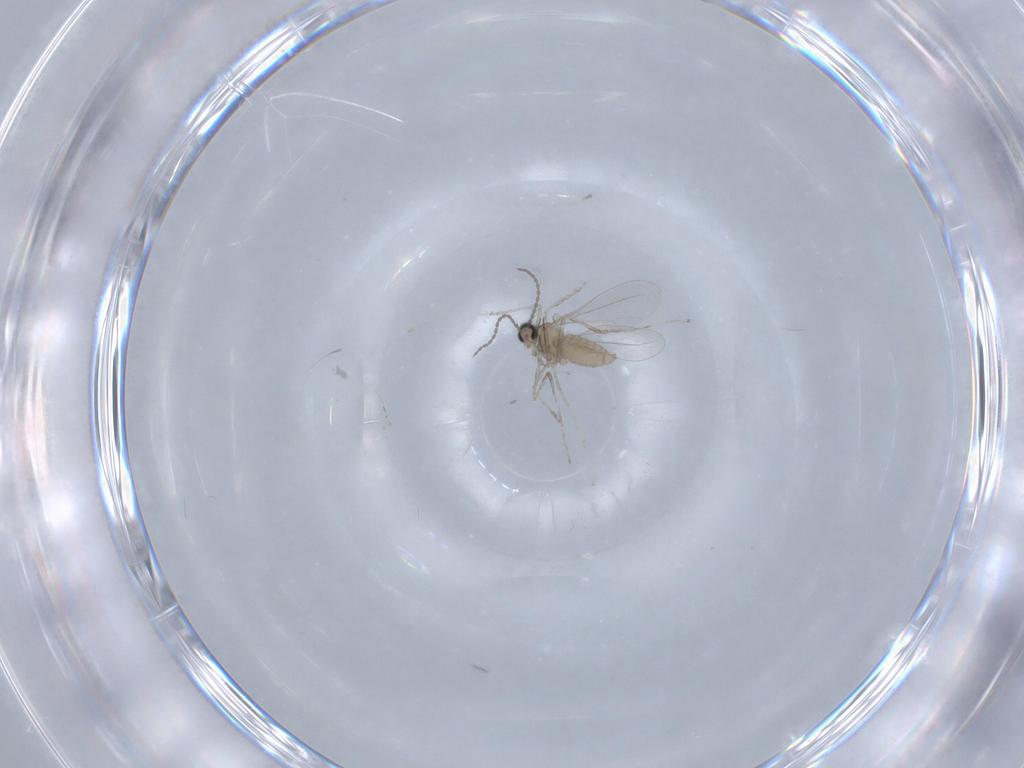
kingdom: Animalia
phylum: Arthropoda
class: Insecta
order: Diptera
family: Cecidomyiidae
